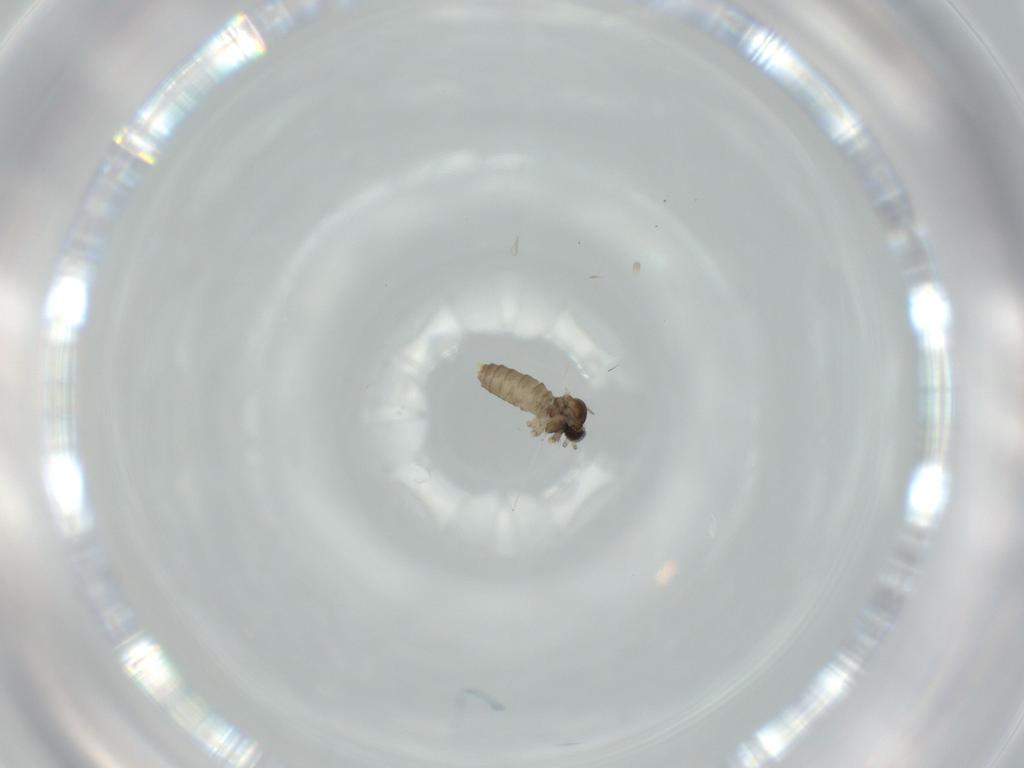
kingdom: Animalia
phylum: Arthropoda
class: Insecta
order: Diptera
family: Cecidomyiidae
